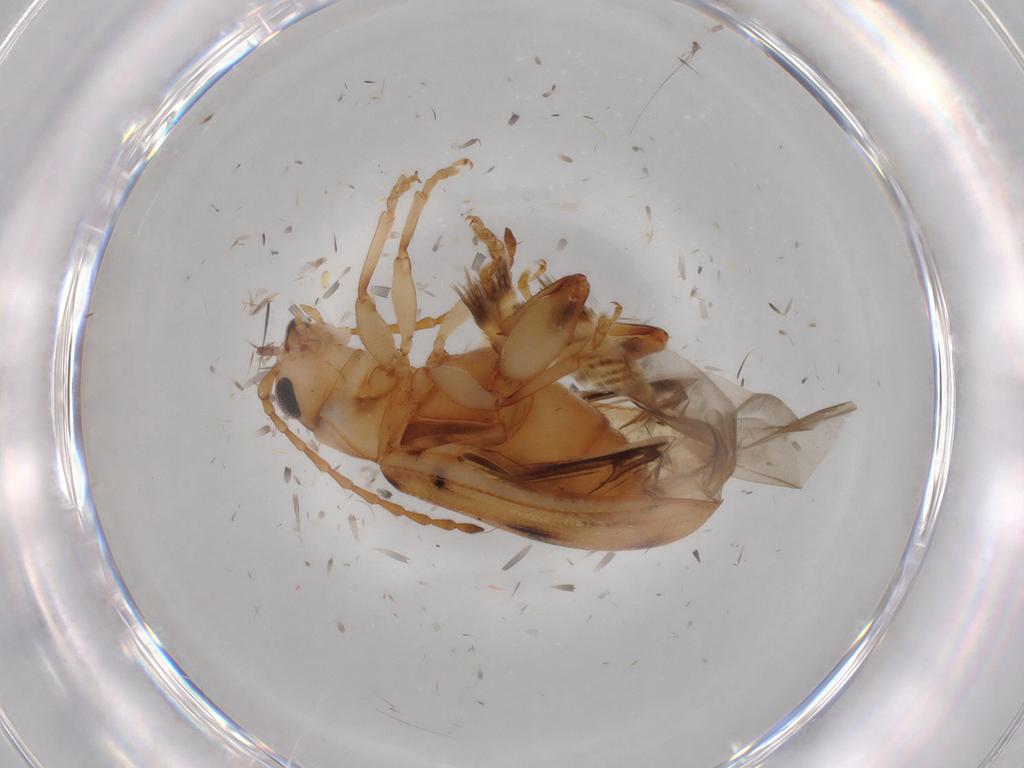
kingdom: Animalia
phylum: Arthropoda
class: Insecta
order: Coleoptera
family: Chrysomelidae
